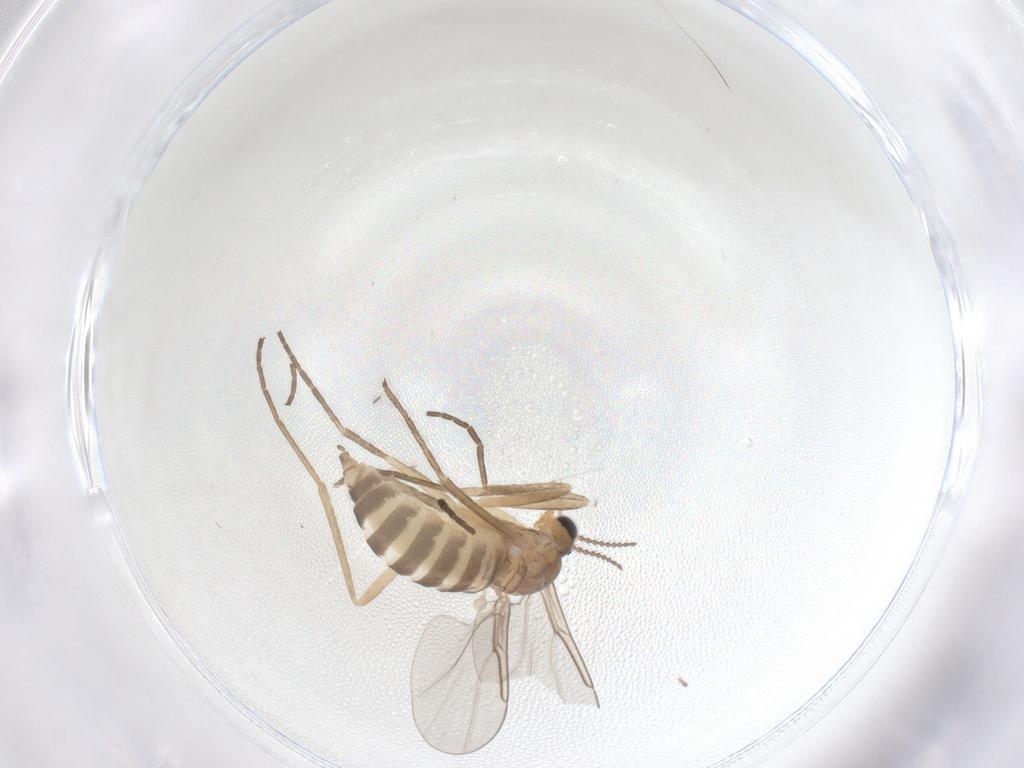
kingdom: Animalia
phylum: Arthropoda
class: Insecta
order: Diptera
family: Cecidomyiidae
